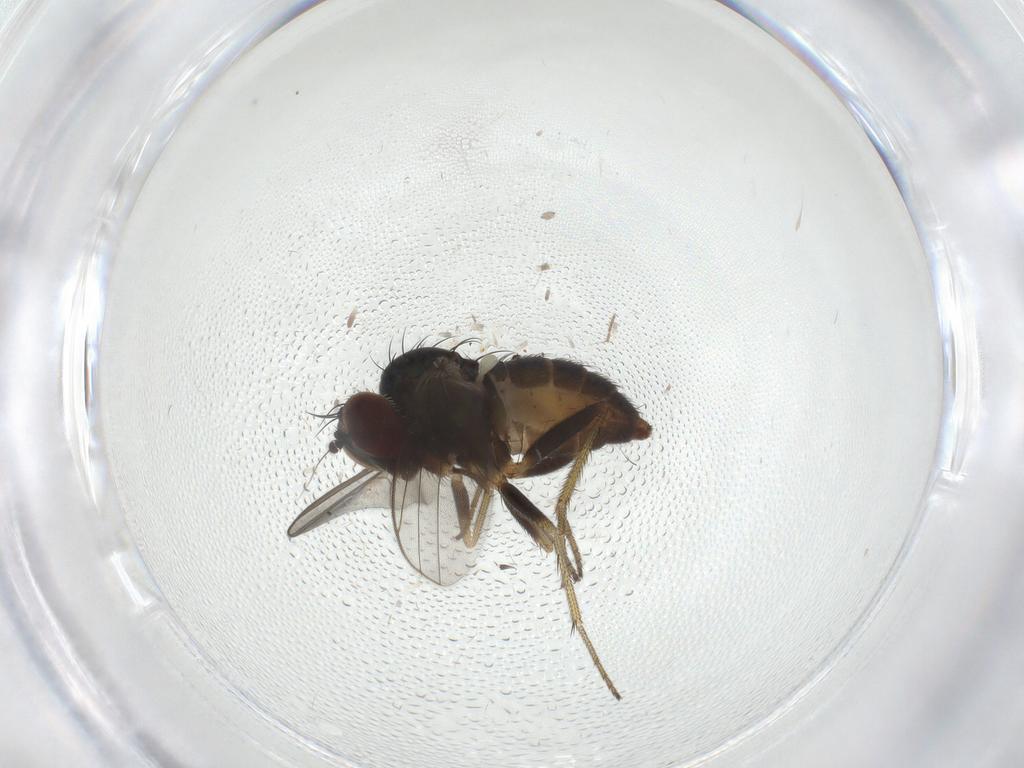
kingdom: Animalia
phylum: Arthropoda
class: Insecta
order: Diptera
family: Dolichopodidae
